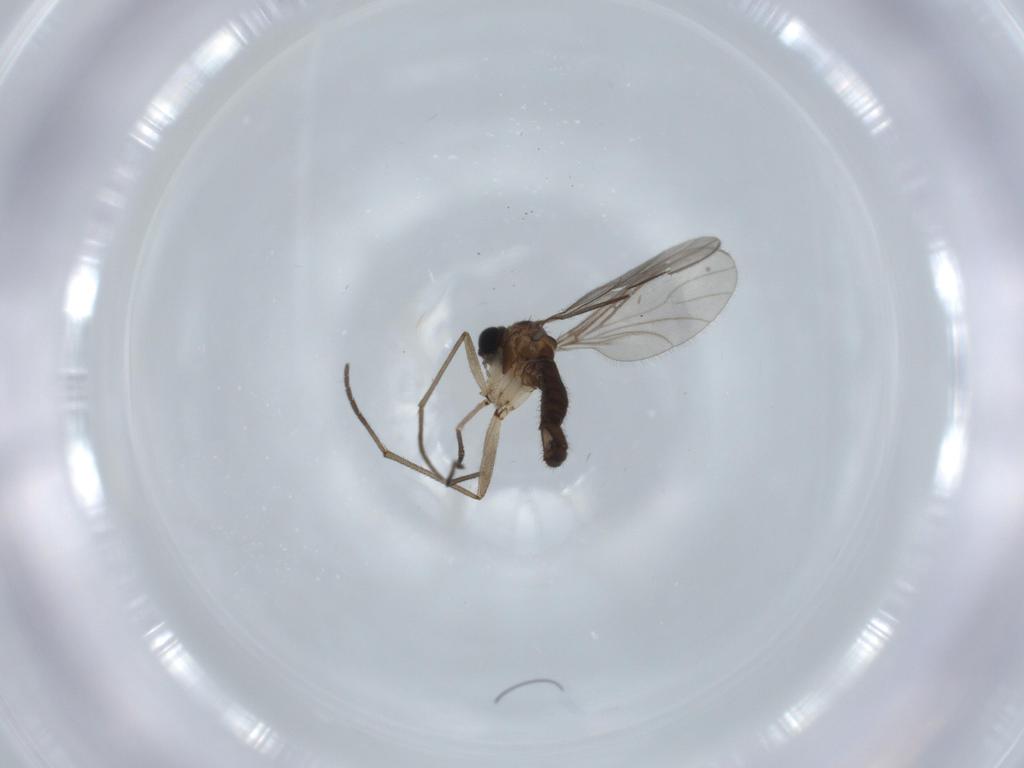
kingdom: Animalia
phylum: Arthropoda
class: Insecta
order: Diptera
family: Sciaridae
